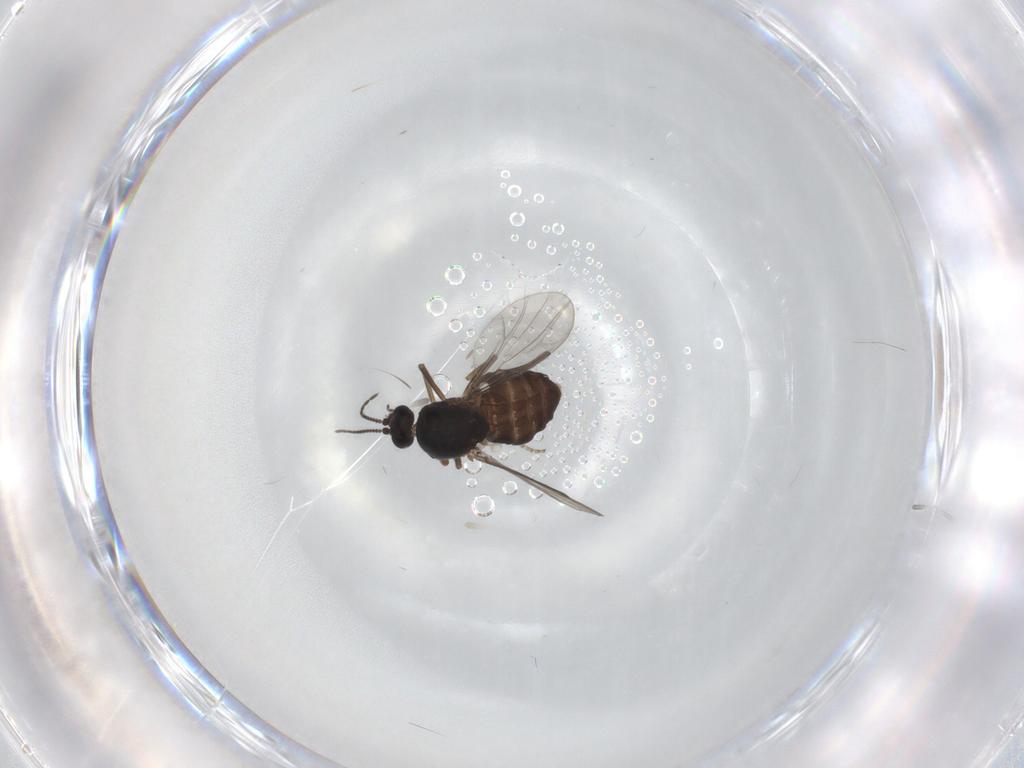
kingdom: Animalia
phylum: Arthropoda
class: Insecta
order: Diptera
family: Ceratopogonidae
